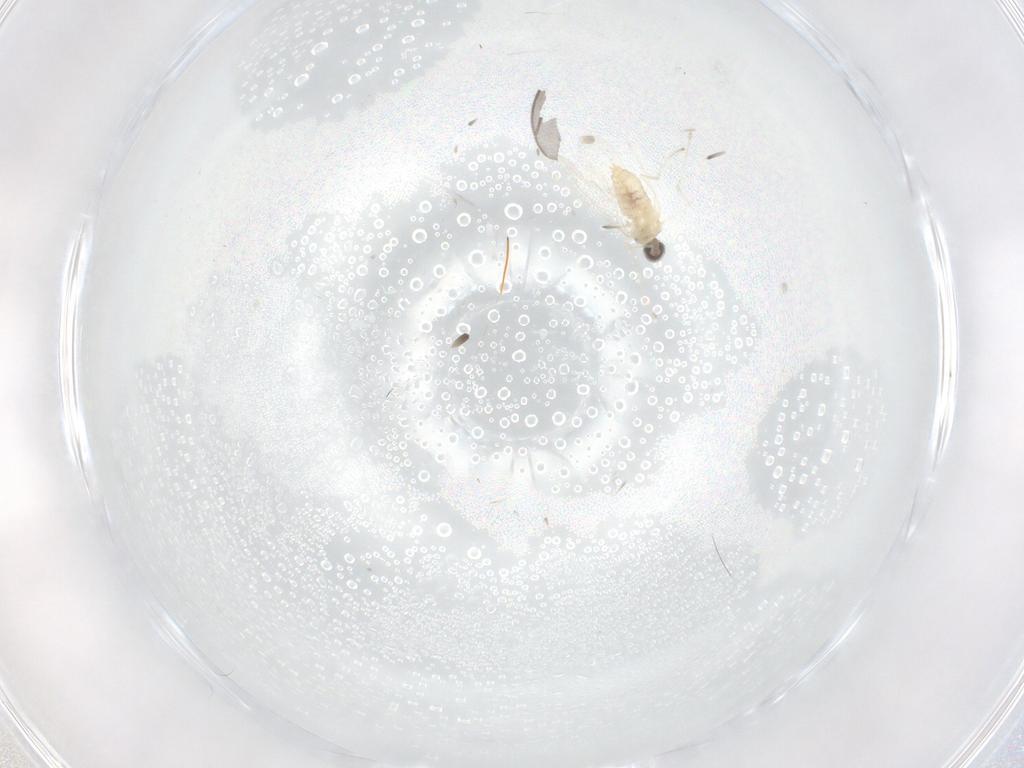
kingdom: Animalia
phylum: Arthropoda
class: Insecta
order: Diptera
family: Cecidomyiidae
